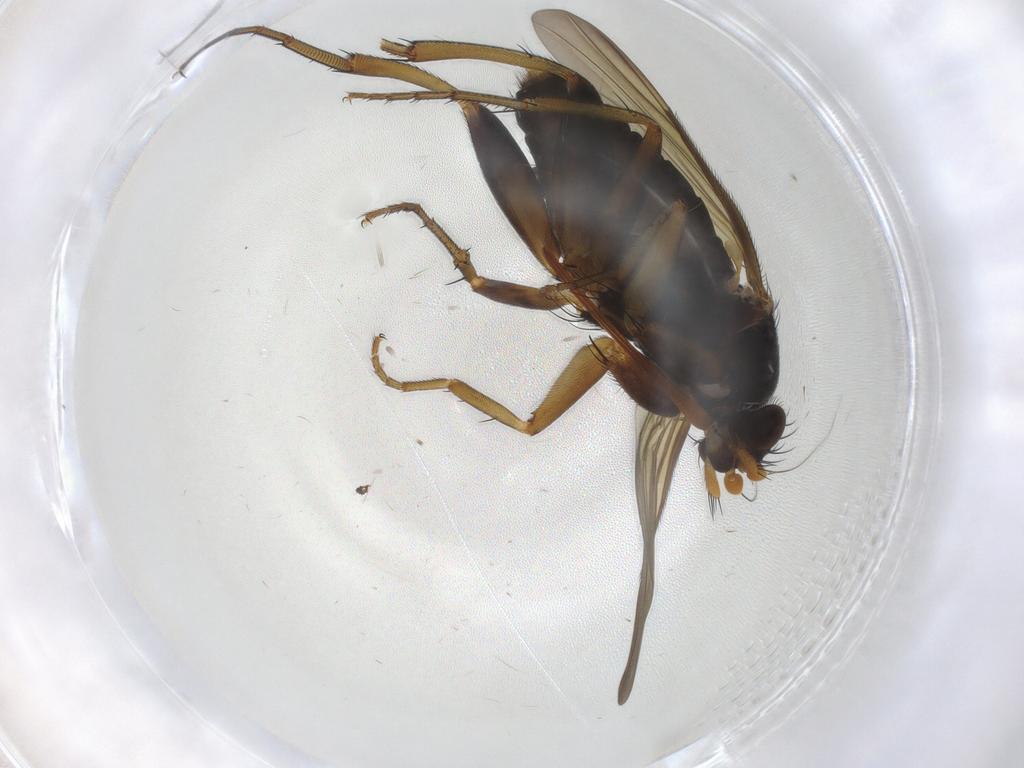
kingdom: Animalia
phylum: Arthropoda
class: Insecta
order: Diptera
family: Phoridae
